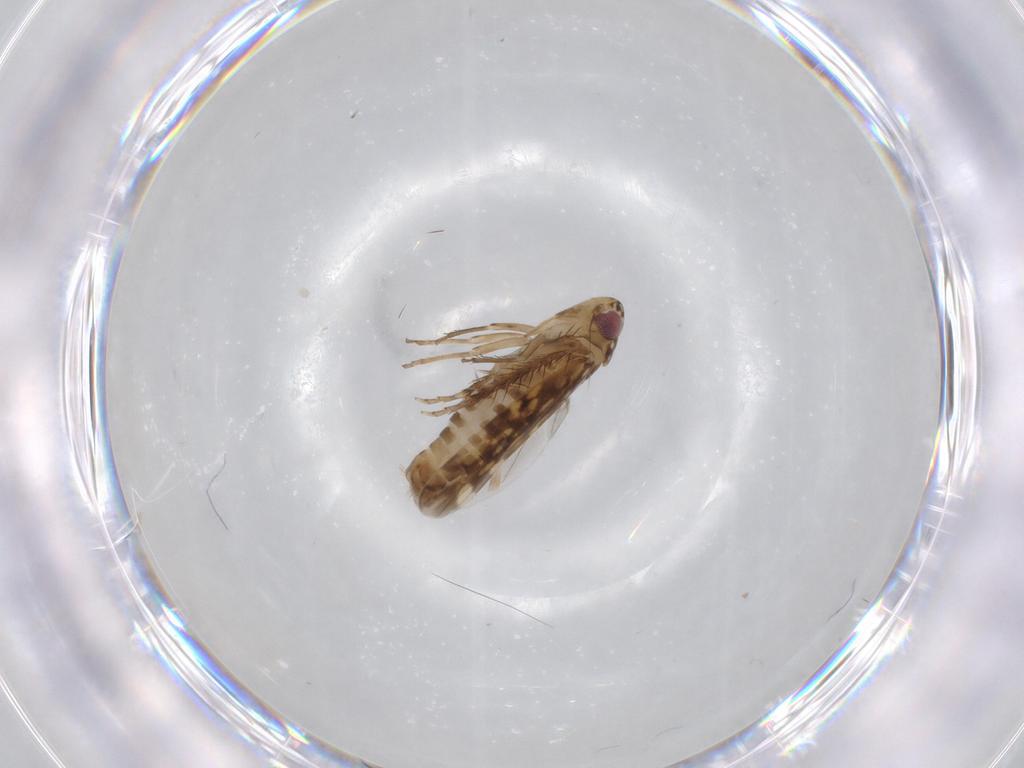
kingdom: Animalia
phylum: Arthropoda
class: Insecta
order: Hemiptera
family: Cicadellidae
